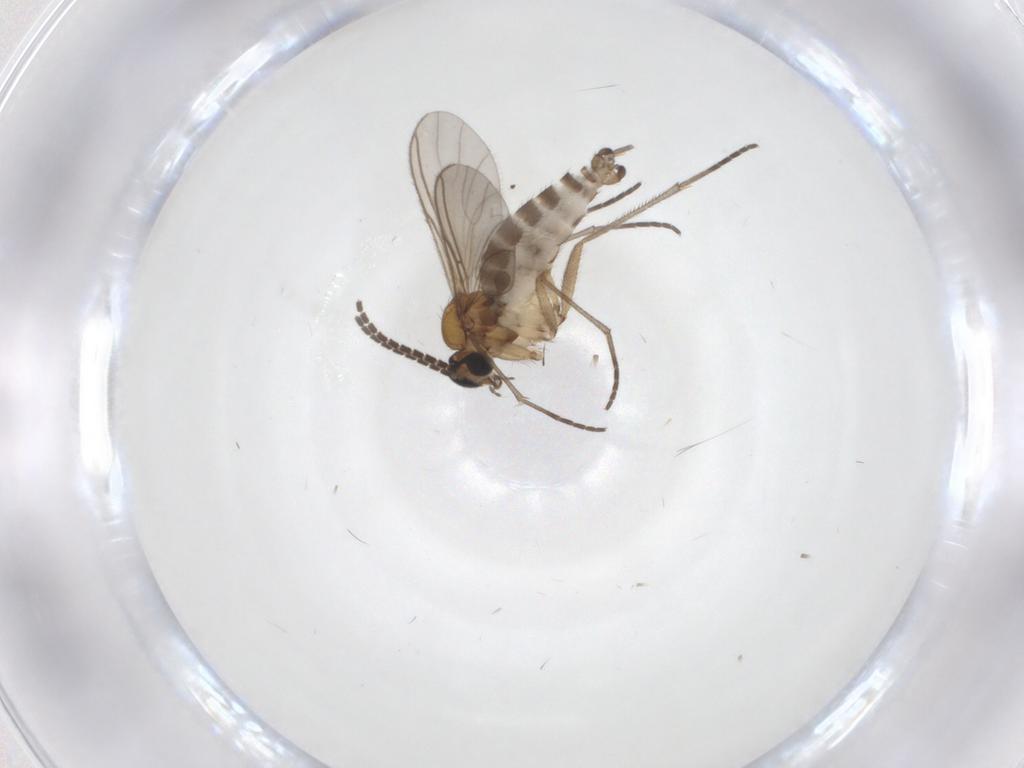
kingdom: Animalia
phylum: Arthropoda
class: Insecta
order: Diptera
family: Sciaridae
